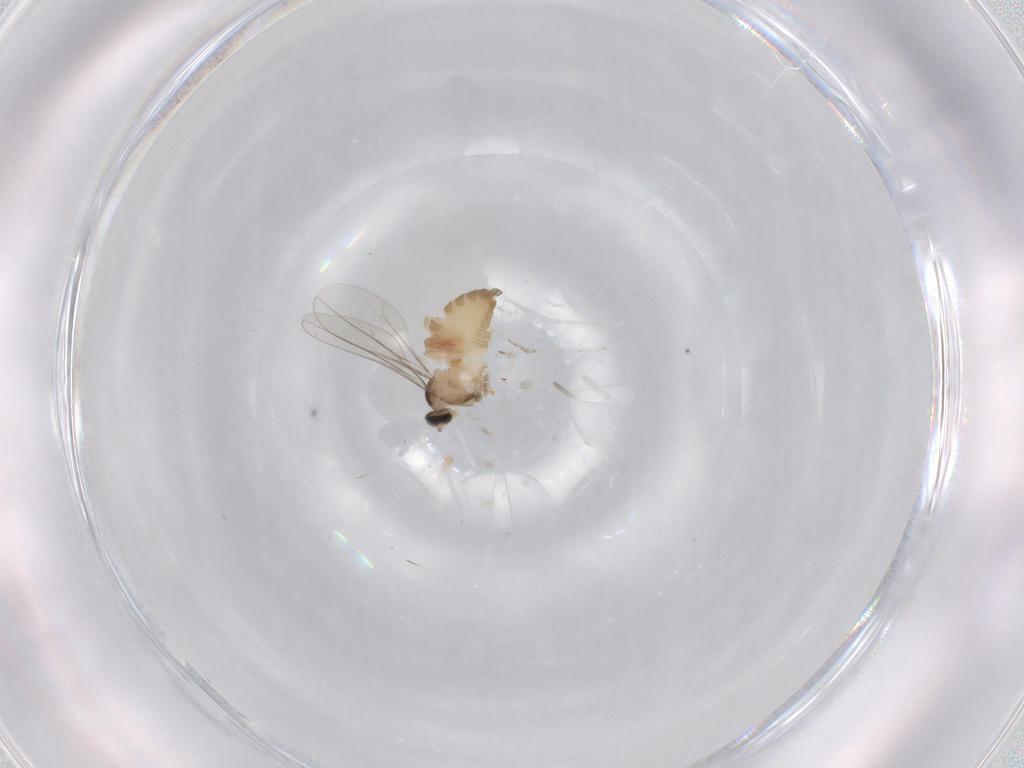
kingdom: Animalia
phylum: Arthropoda
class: Insecta
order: Diptera
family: Cecidomyiidae
